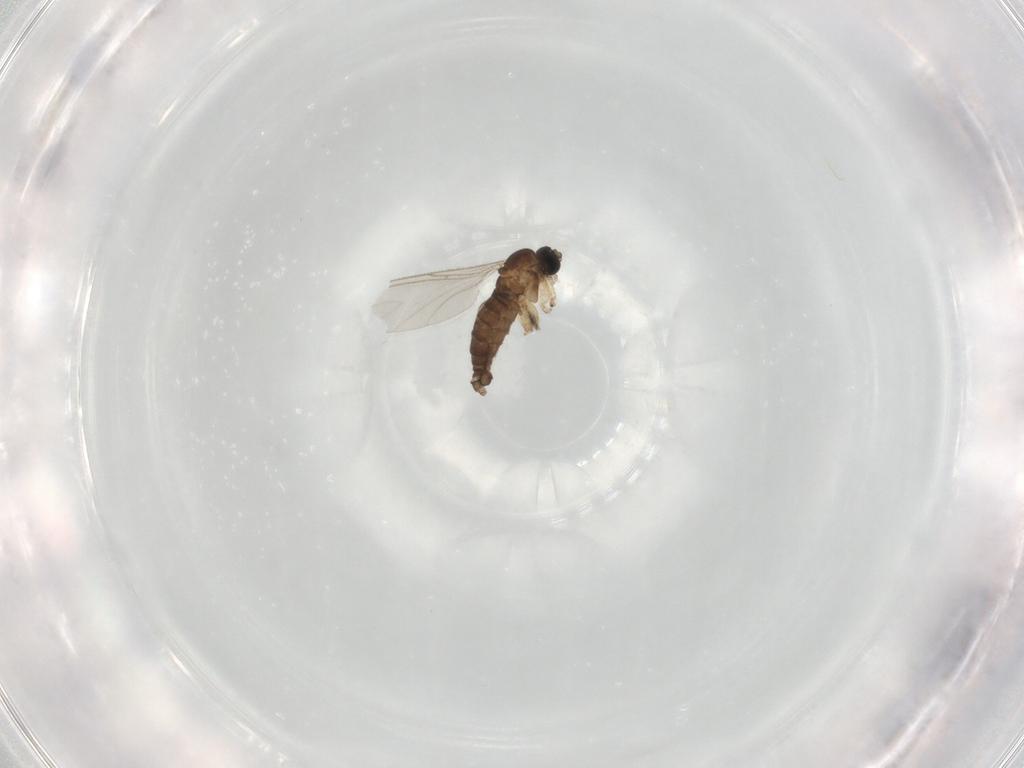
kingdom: Animalia
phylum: Arthropoda
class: Insecta
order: Diptera
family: Sciaridae
